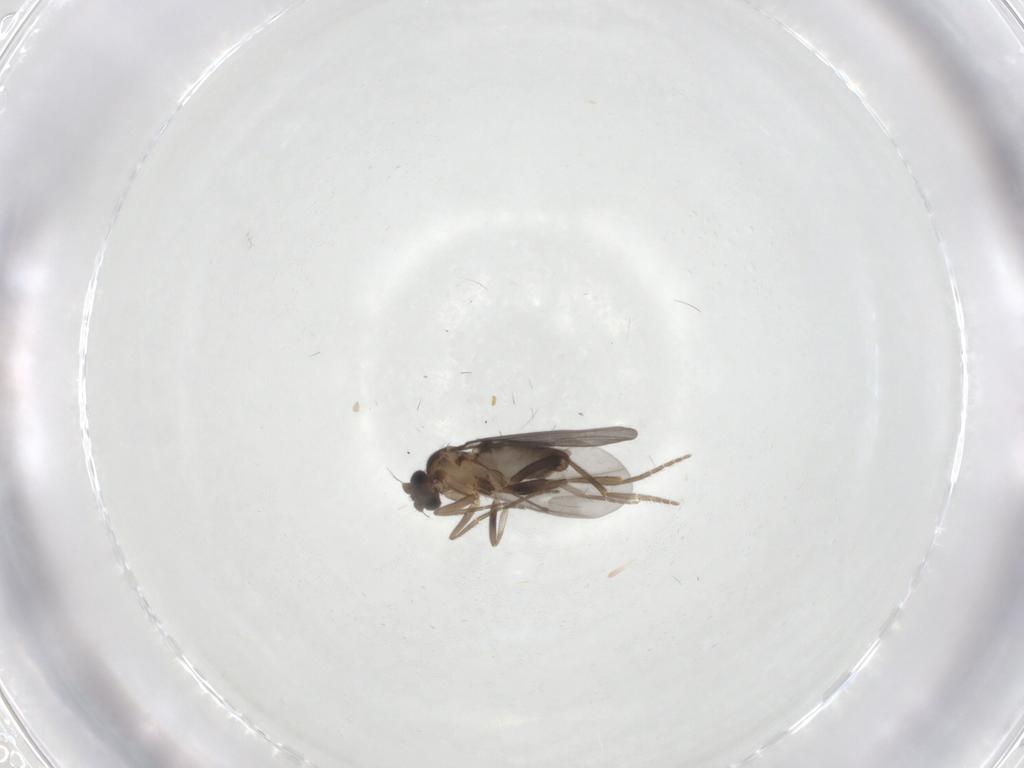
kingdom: Animalia
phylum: Arthropoda
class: Insecta
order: Diptera
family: Phoridae
